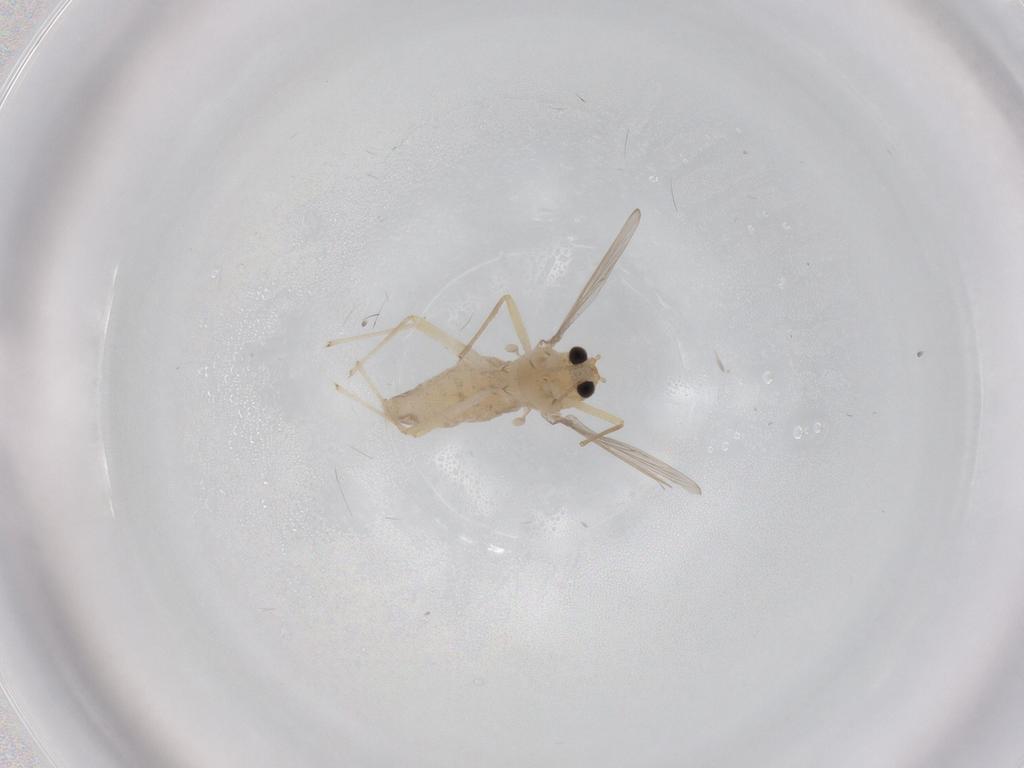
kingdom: Animalia
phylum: Arthropoda
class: Insecta
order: Diptera
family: Chironomidae
